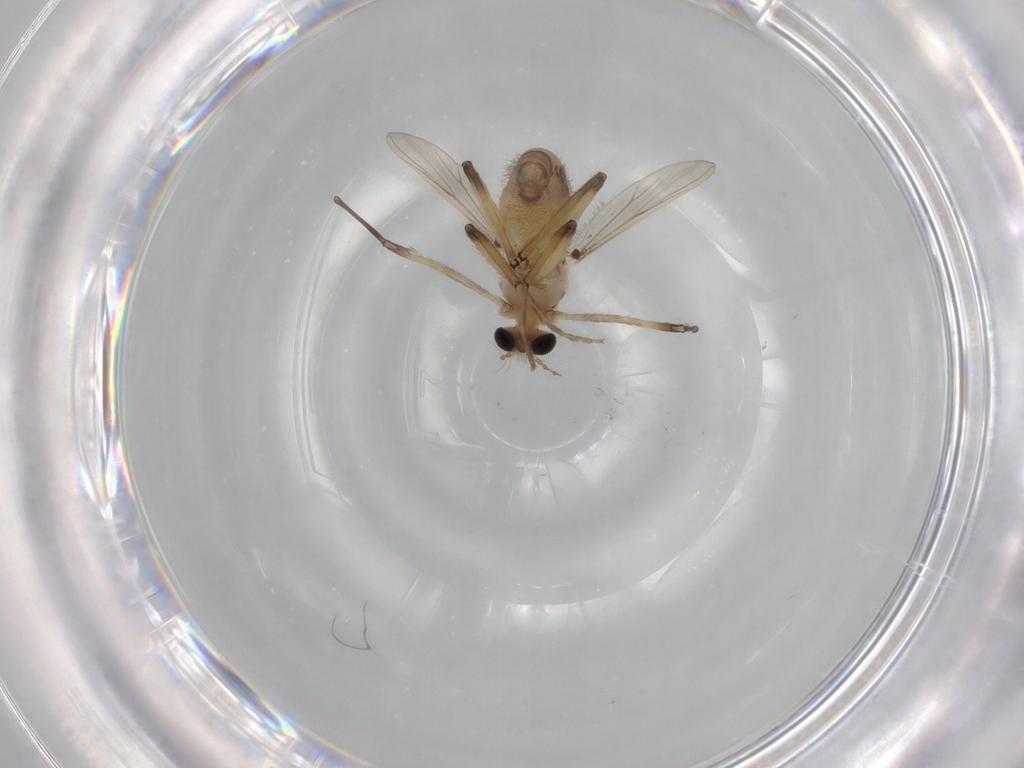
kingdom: Animalia
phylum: Arthropoda
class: Insecta
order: Diptera
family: Chironomidae
